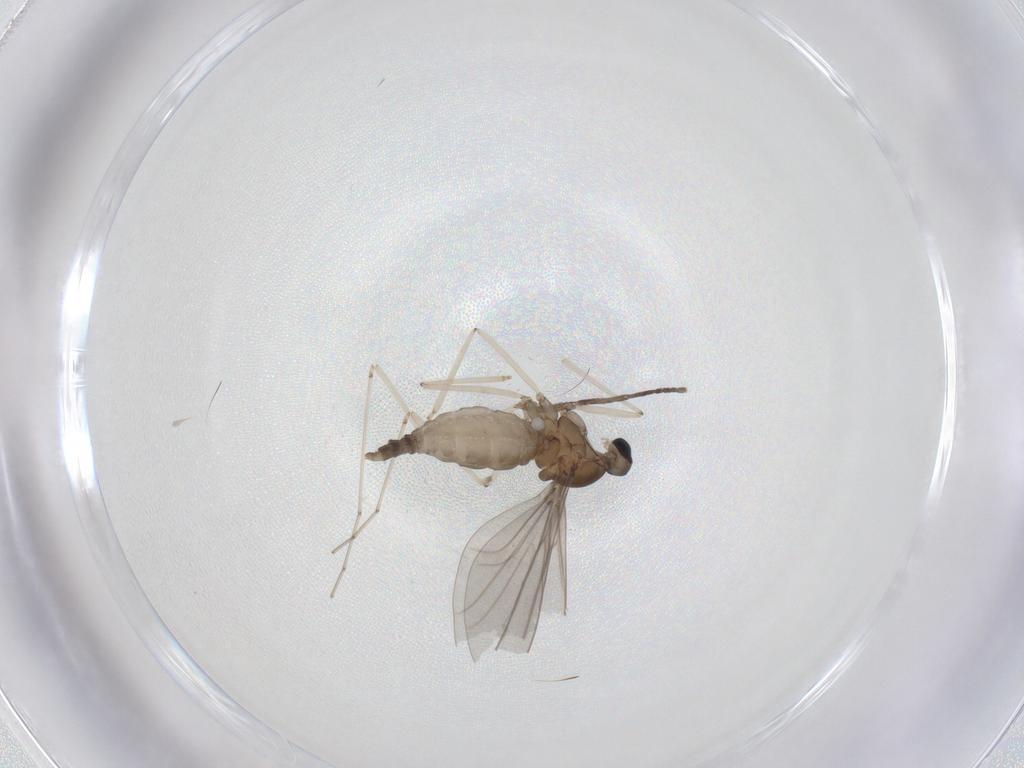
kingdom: Animalia
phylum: Arthropoda
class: Insecta
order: Diptera
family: Cecidomyiidae
